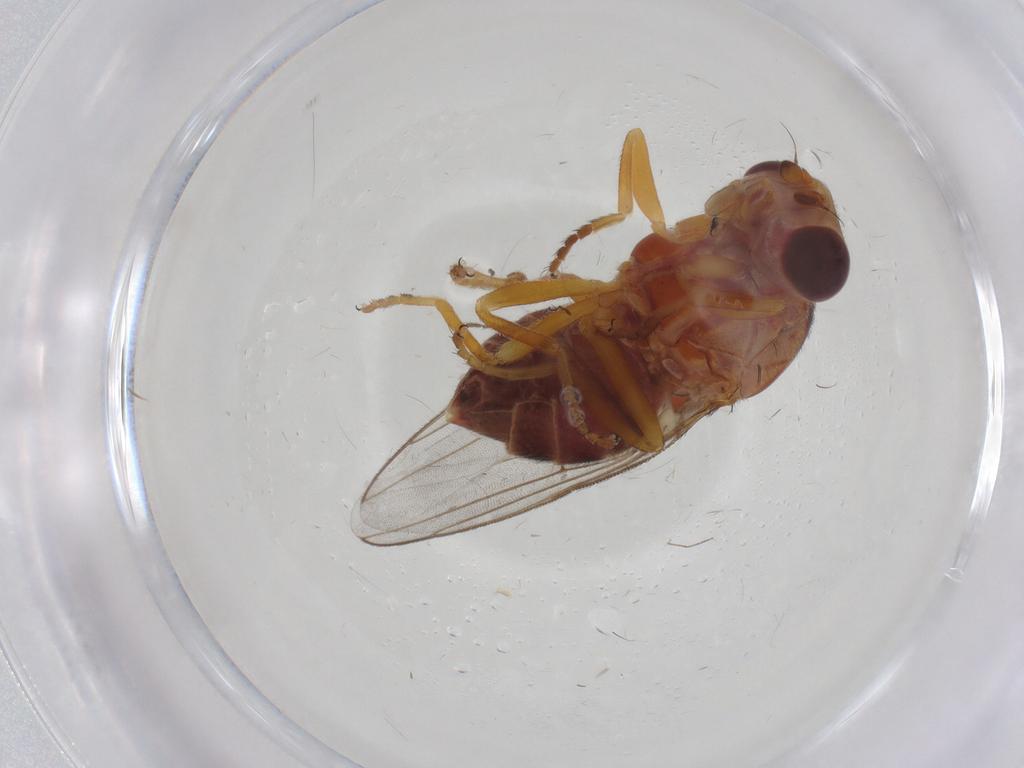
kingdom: Animalia
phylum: Arthropoda
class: Insecta
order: Diptera
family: Chloropidae
